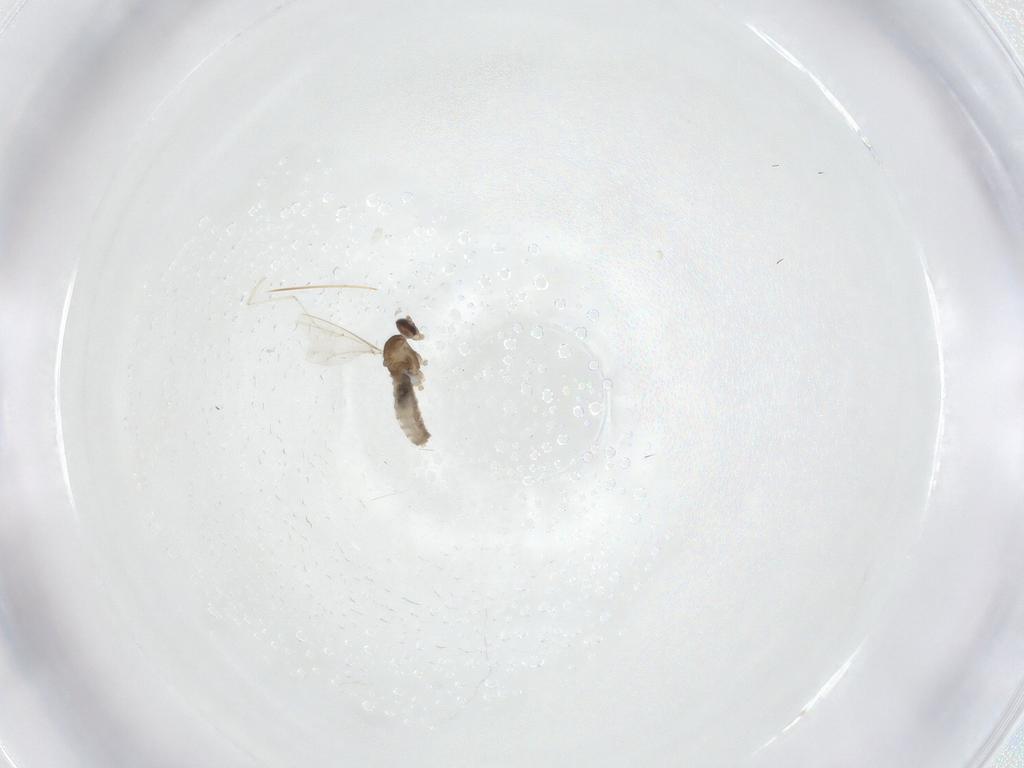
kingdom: Animalia
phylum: Arthropoda
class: Insecta
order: Diptera
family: Cecidomyiidae
